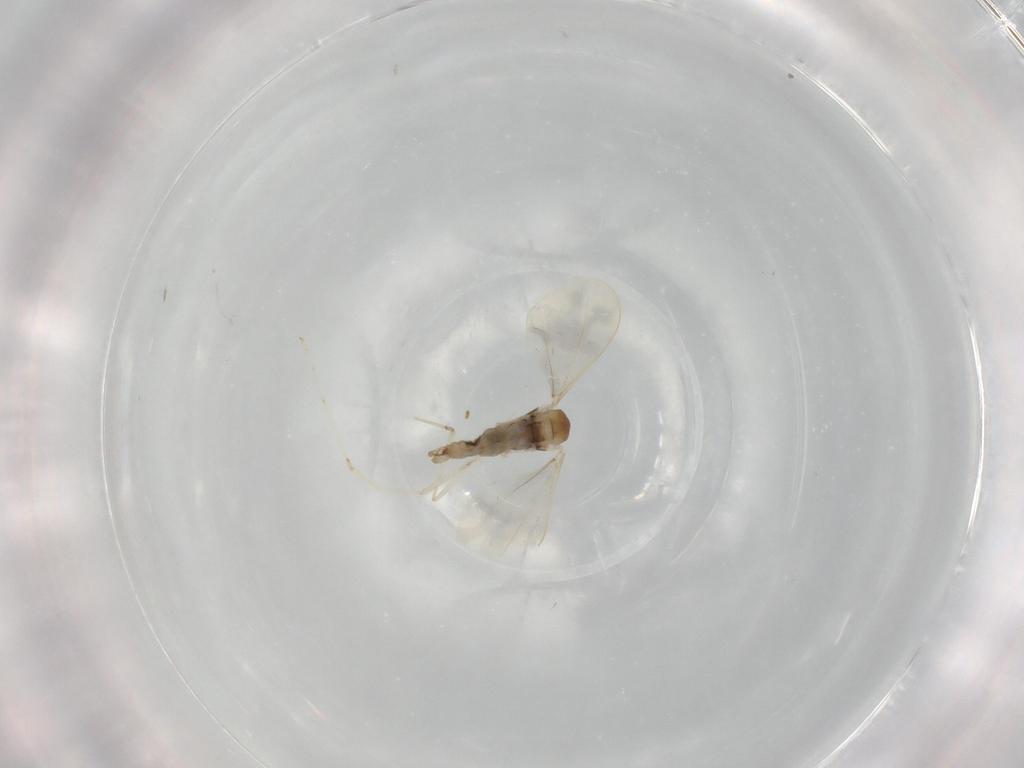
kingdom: Animalia
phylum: Arthropoda
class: Insecta
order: Diptera
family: Cecidomyiidae
